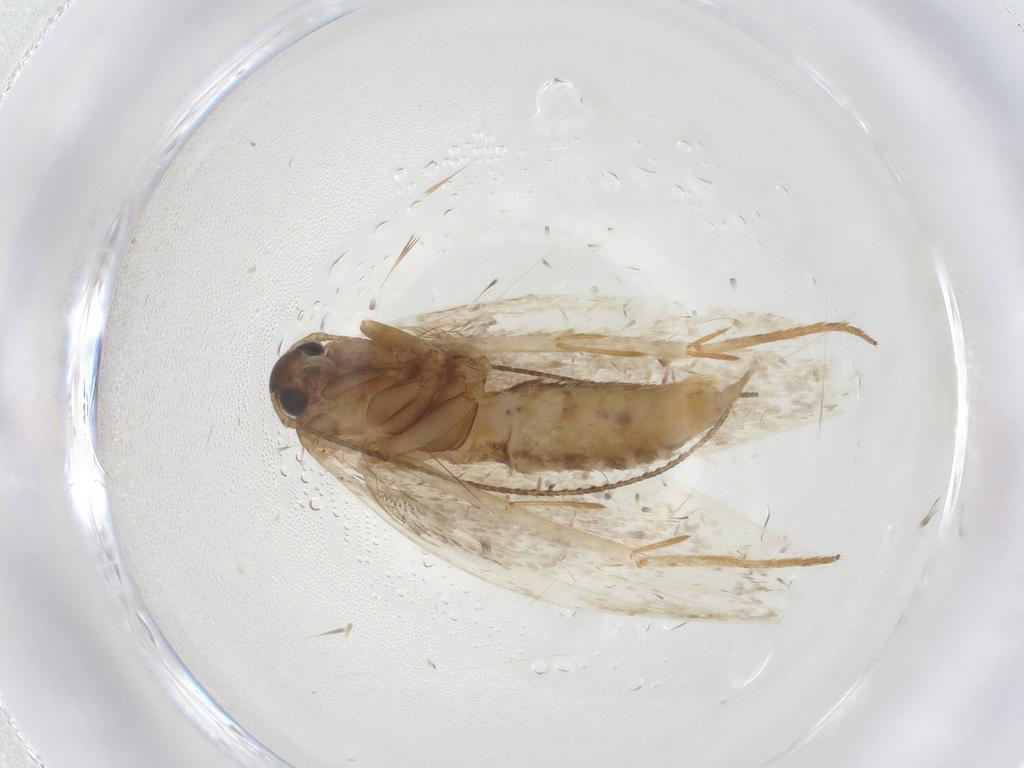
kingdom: Animalia
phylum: Arthropoda
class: Insecta
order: Lepidoptera
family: Erebidae
